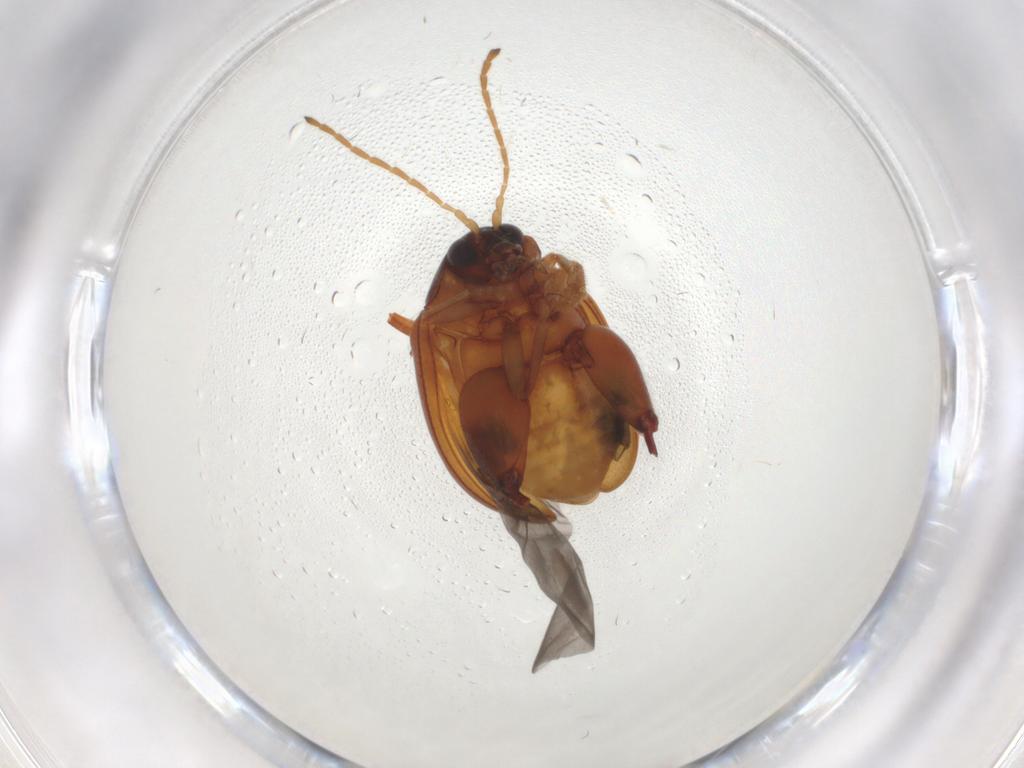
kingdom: Animalia
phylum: Arthropoda
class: Insecta
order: Coleoptera
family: Chrysomelidae
